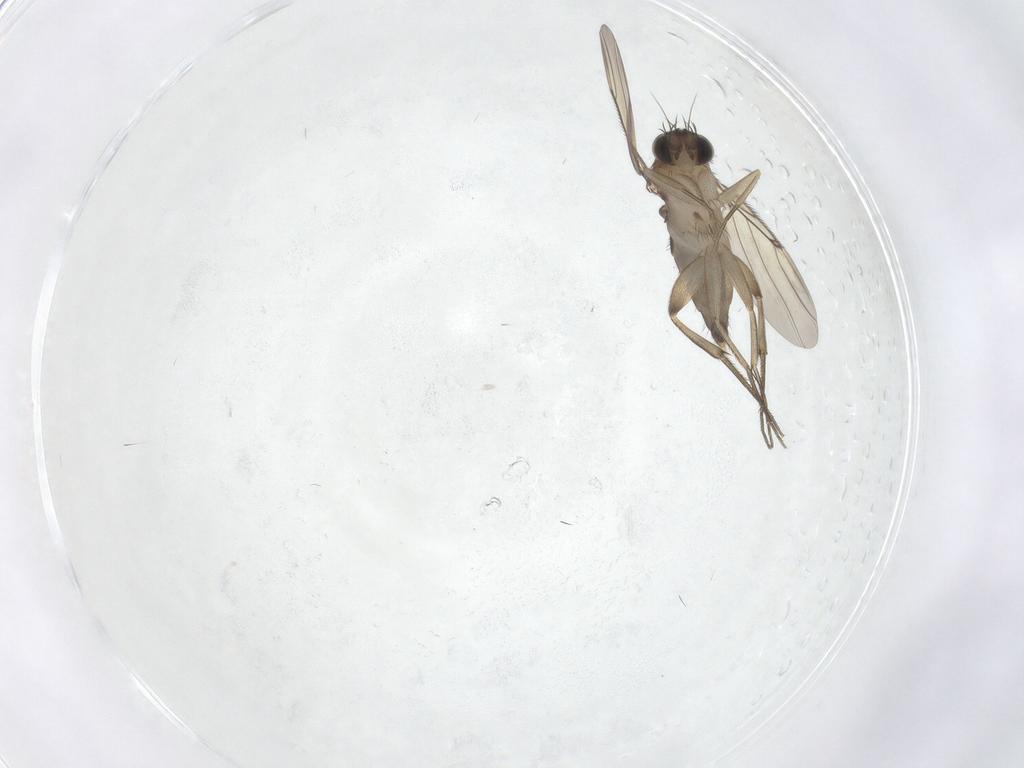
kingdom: Animalia
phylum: Arthropoda
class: Insecta
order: Diptera
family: Phoridae
